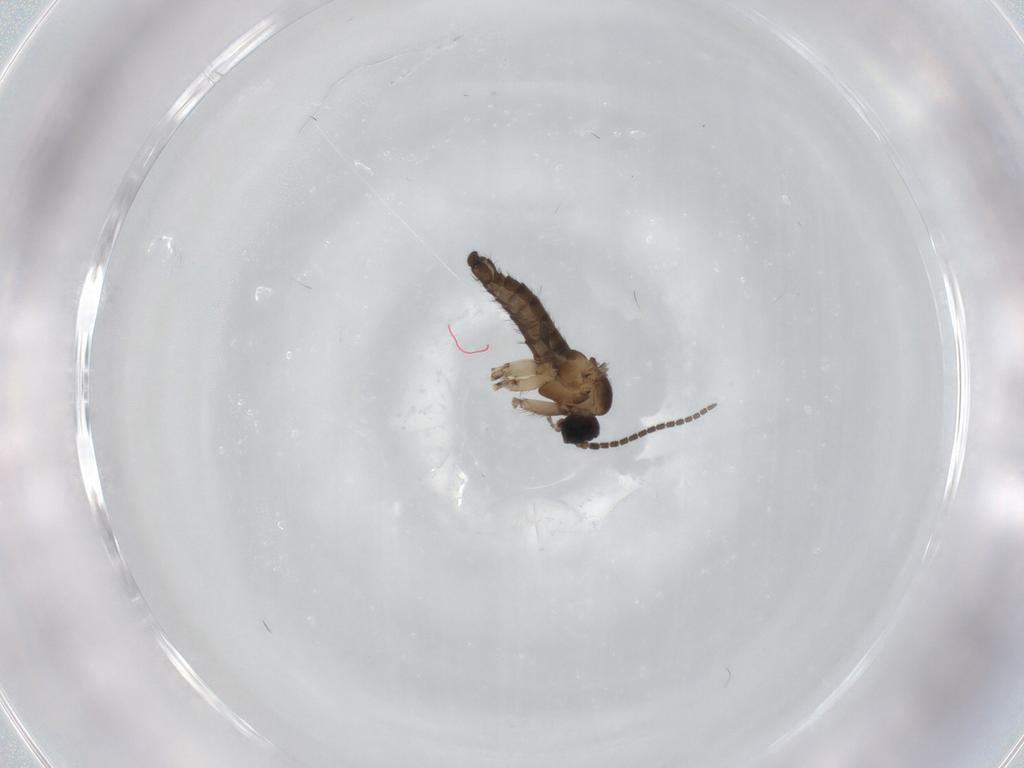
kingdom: Animalia
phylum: Arthropoda
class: Insecta
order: Diptera
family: Sciaridae
